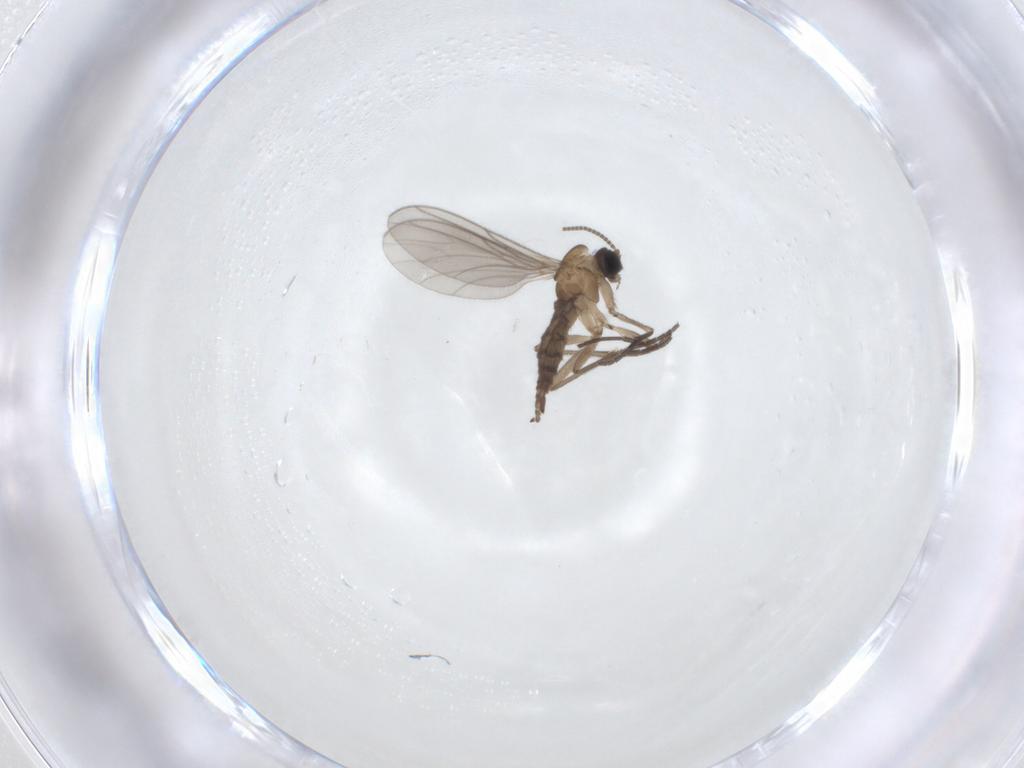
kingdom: Animalia
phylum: Arthropoda
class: Insecta
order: Diptera
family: Sciaridae
